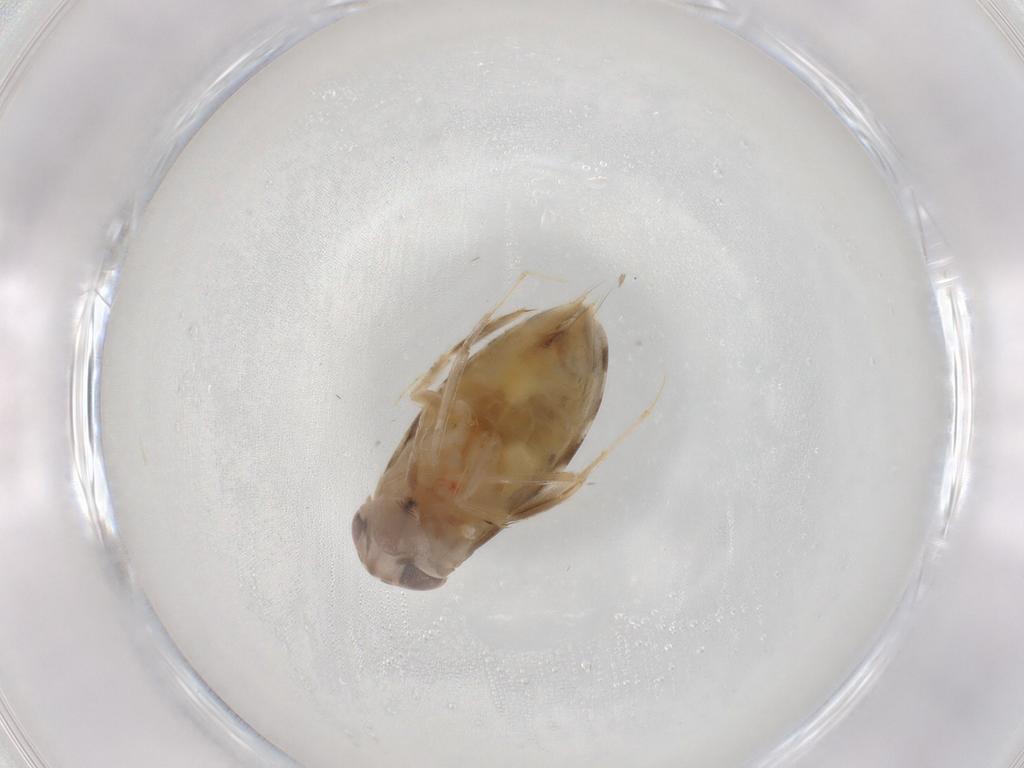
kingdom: Animalia
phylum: Arthropoda
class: Insecta
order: Hemiptera
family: Corixidae
